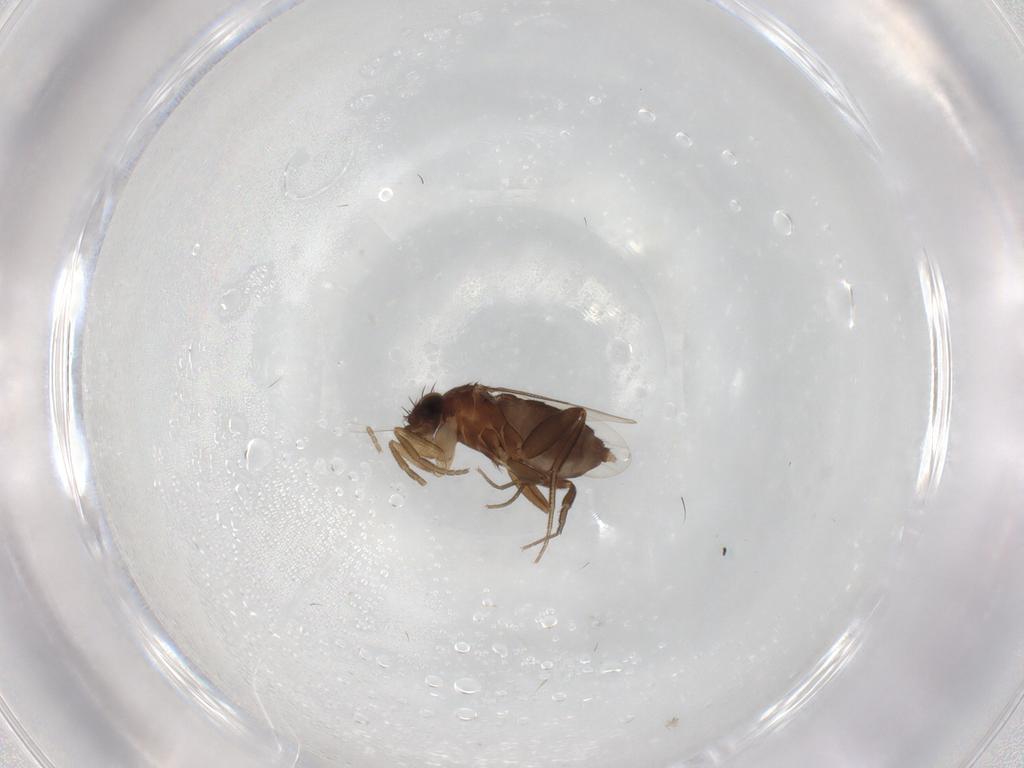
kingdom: Animalia
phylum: Arthropoda
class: Insecta
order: Diptera
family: Phoridae
